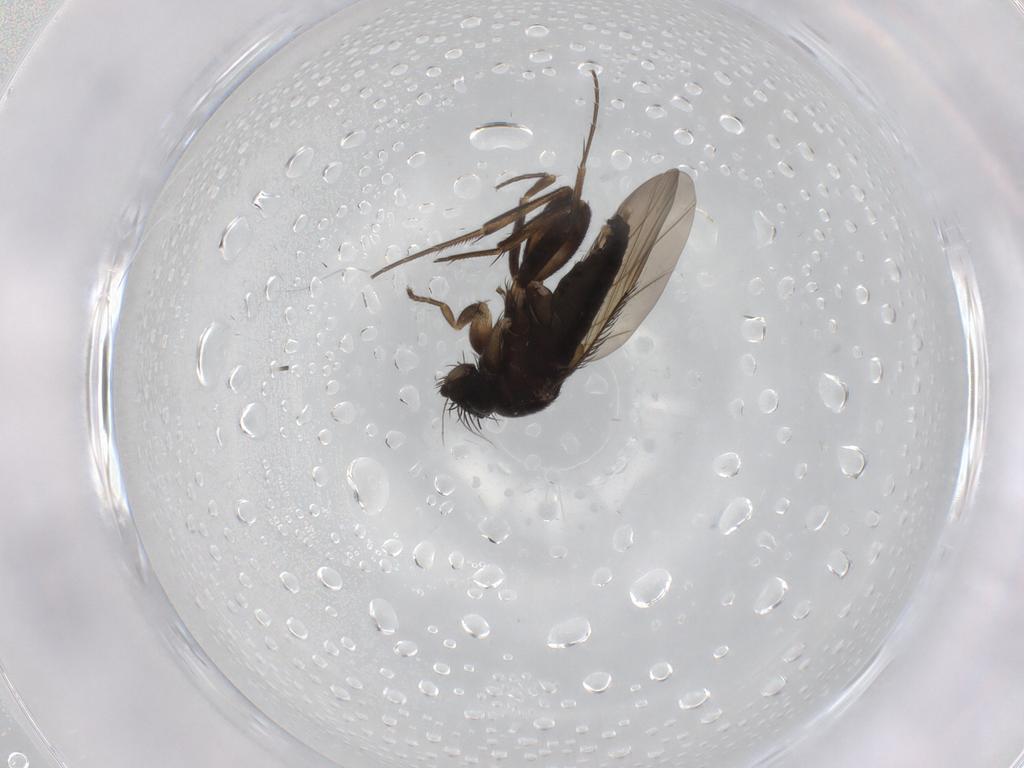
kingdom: Animalia
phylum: Arthropoda
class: Insecta
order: Diptera
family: Phoridae
